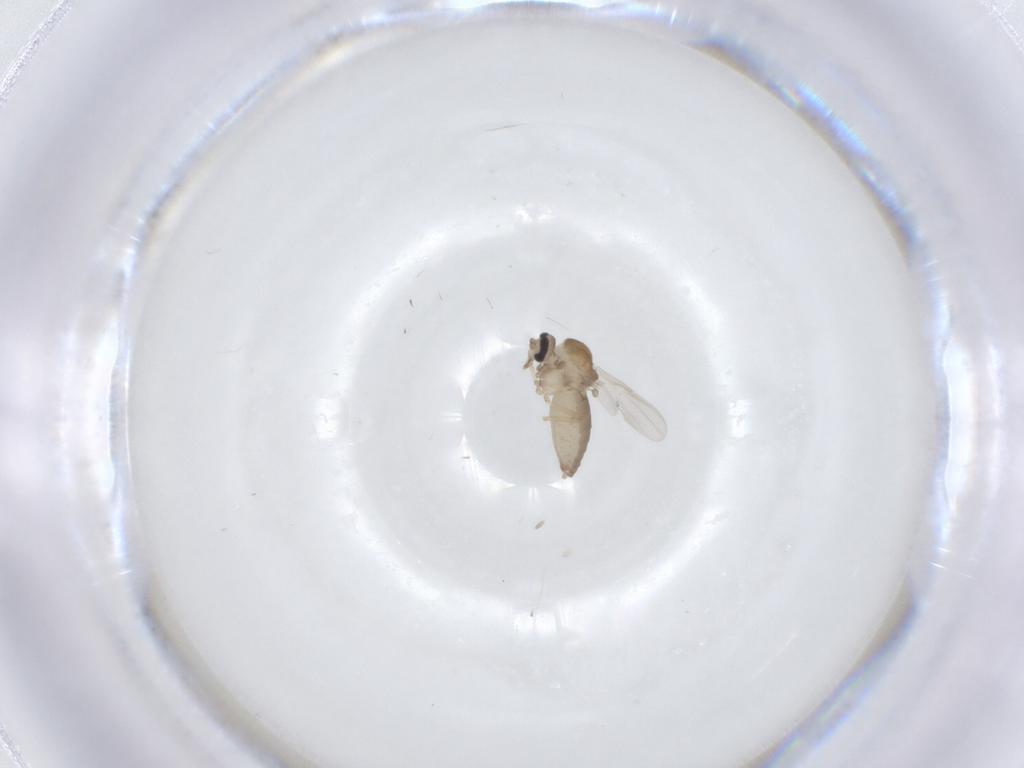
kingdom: Animalia
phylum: Arthropoda
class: Insecta
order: Diptera
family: Ceratopogonidae
